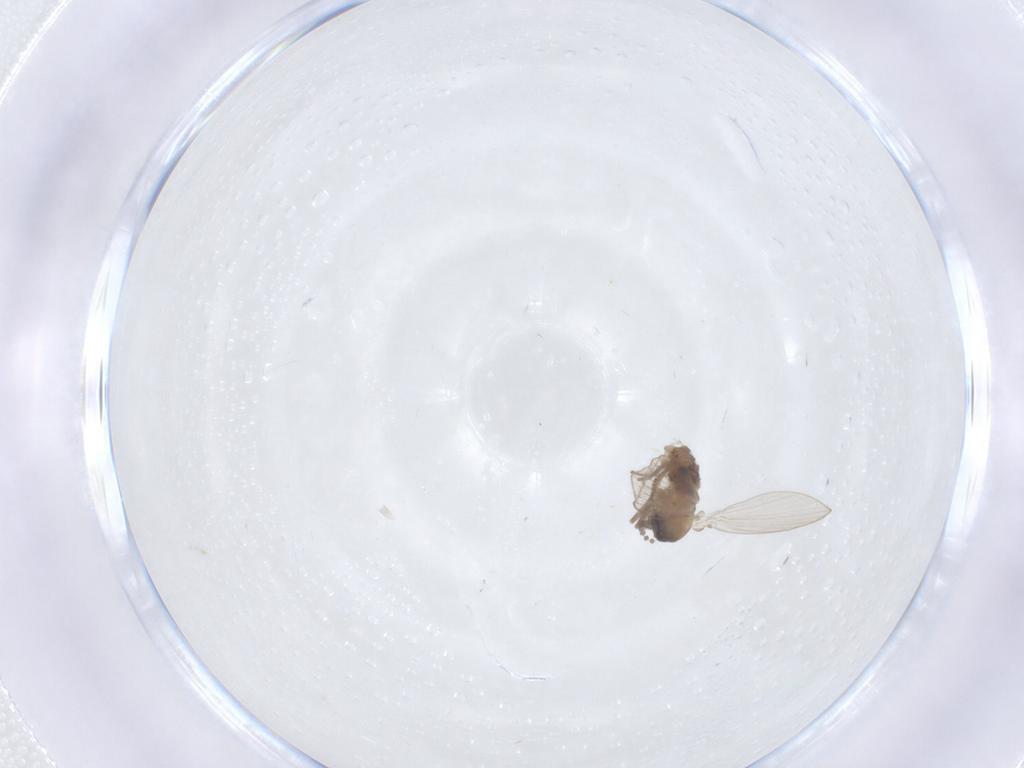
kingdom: Animalia
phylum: Arthropoda
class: Insecta
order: Diptera
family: Psychodidae
